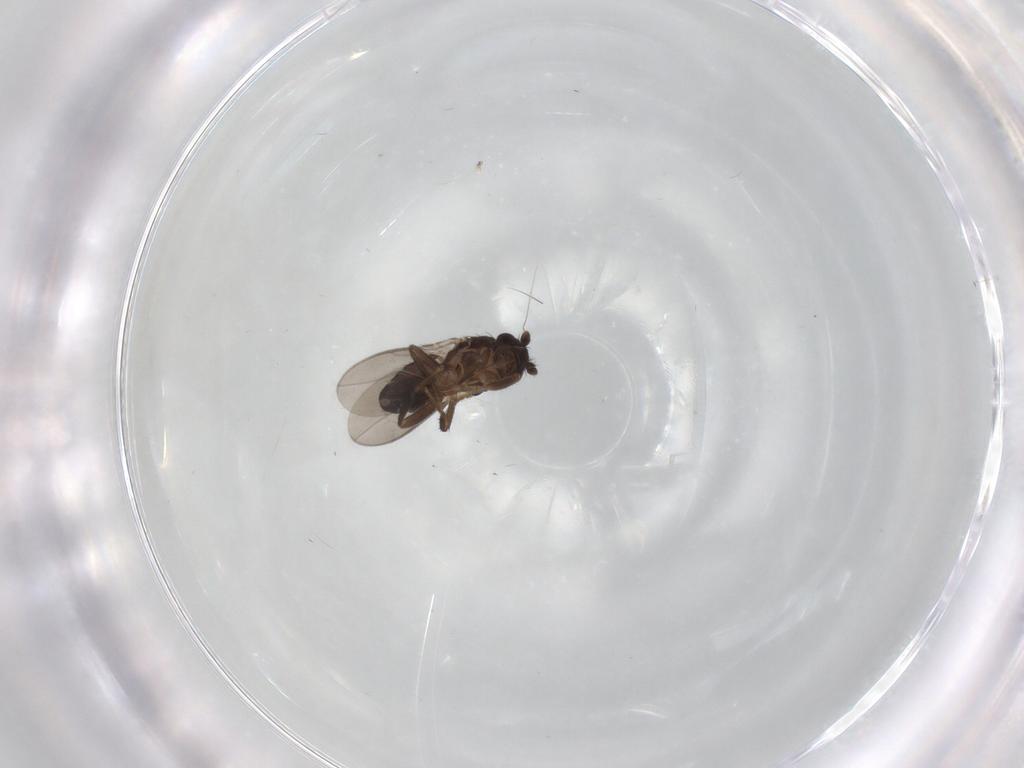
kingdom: Animalia
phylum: Arthropoda
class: Insecta
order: Diptera
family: Sphaeroceridae
